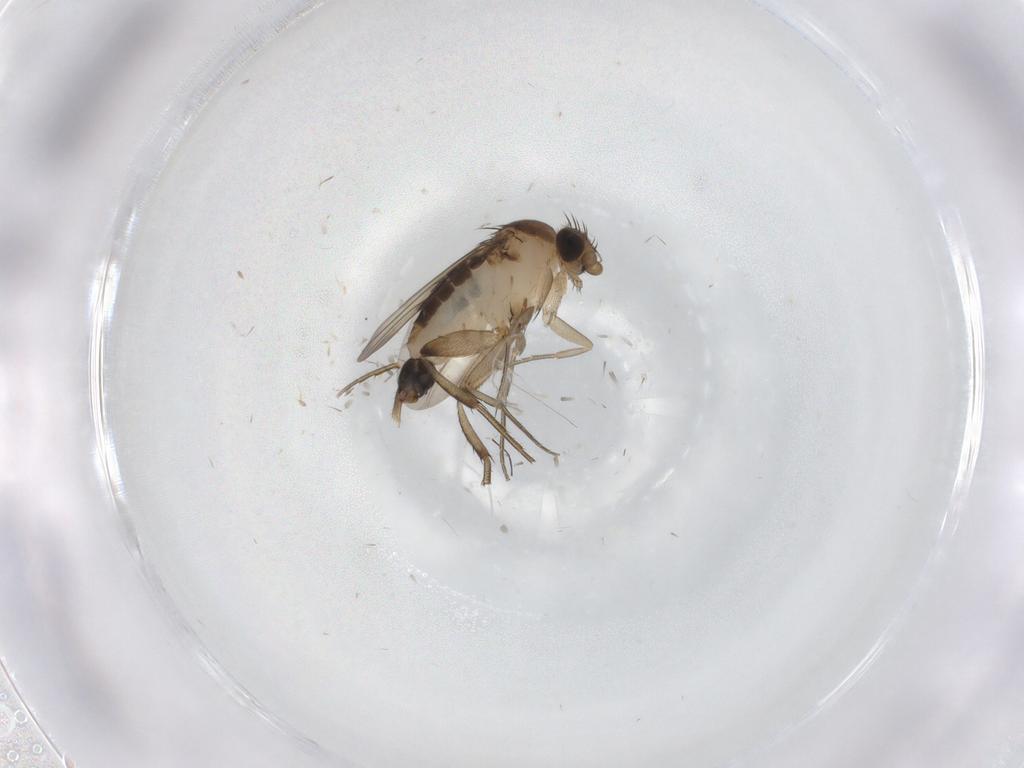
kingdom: Animalia
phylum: Arthropoda
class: Insecta
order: Diptera
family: Phoridae
